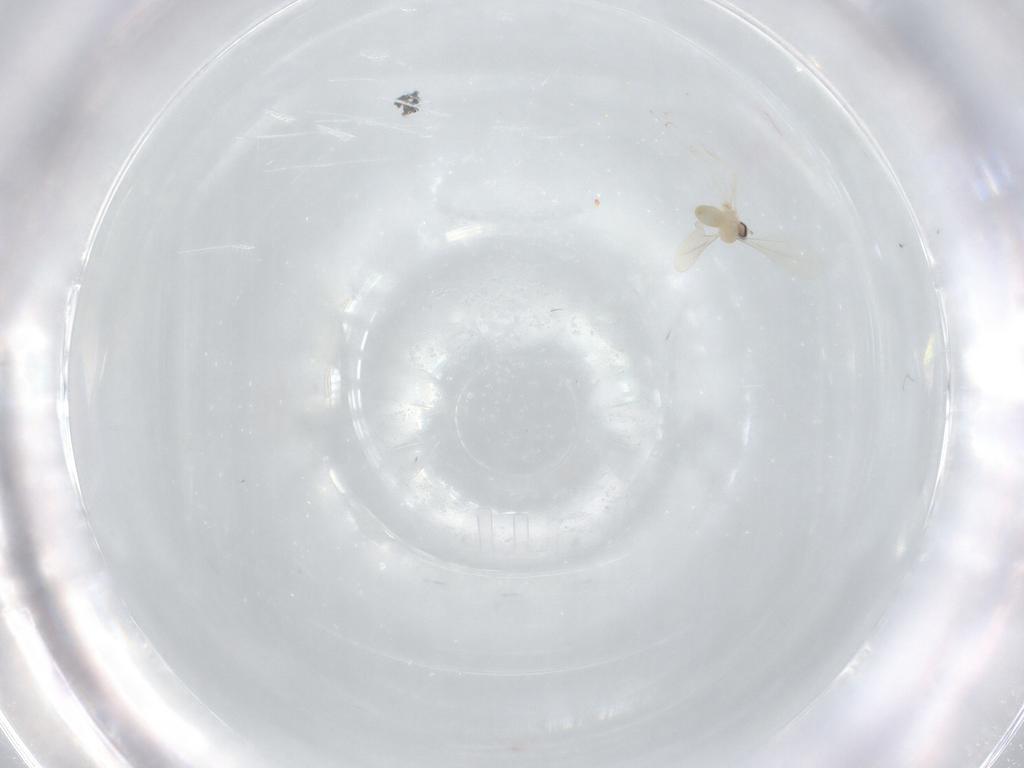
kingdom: Animalia
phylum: Arthropoda
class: Insecta
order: Diptera
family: Cecidomyiidae
